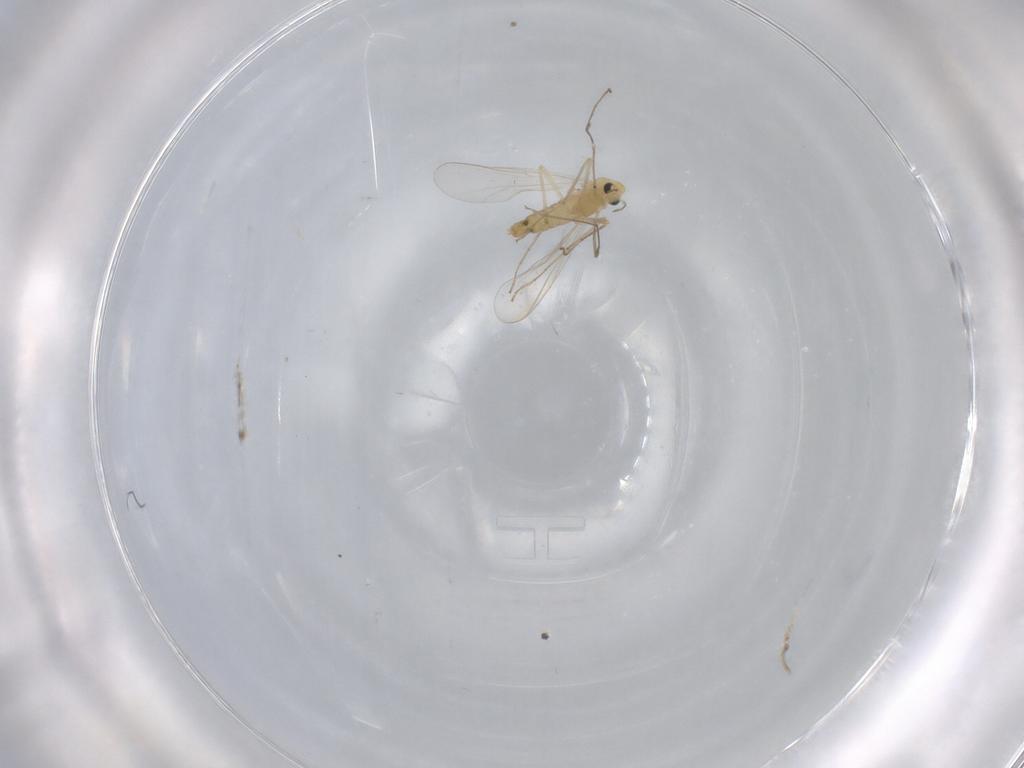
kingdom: Animalia
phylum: Arthropoda
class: Insecta
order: Diptera
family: Chironomidae
